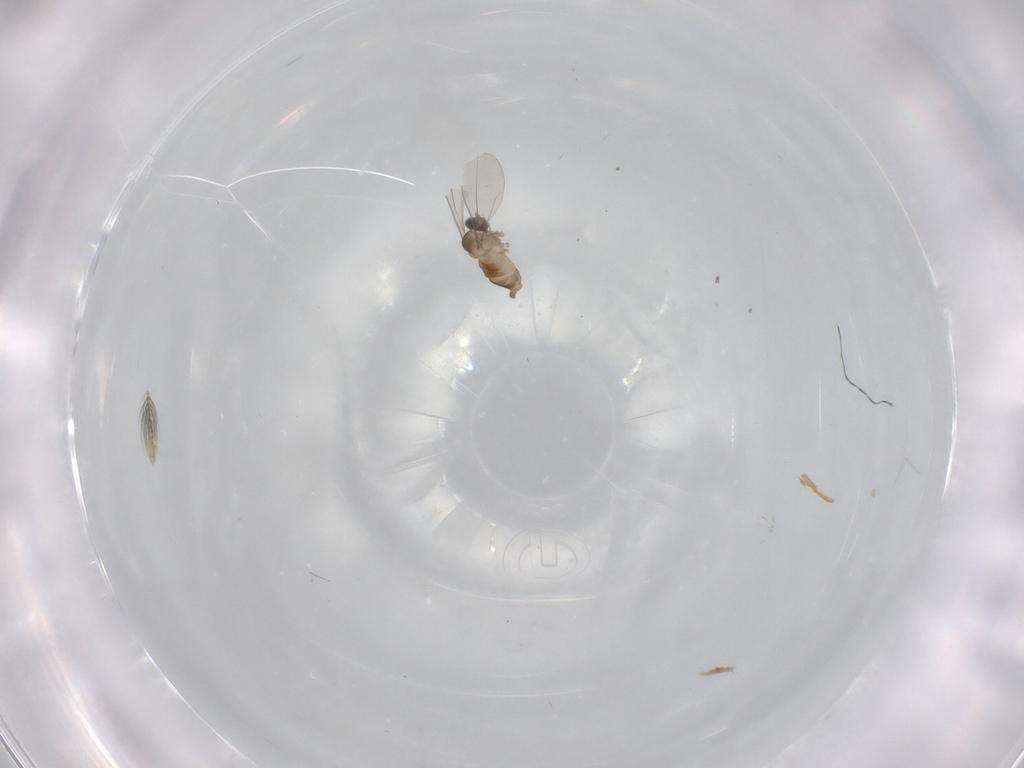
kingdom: Animalia
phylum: Arthropoda
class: Insecta
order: Diptera
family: Cecidomyiidae
